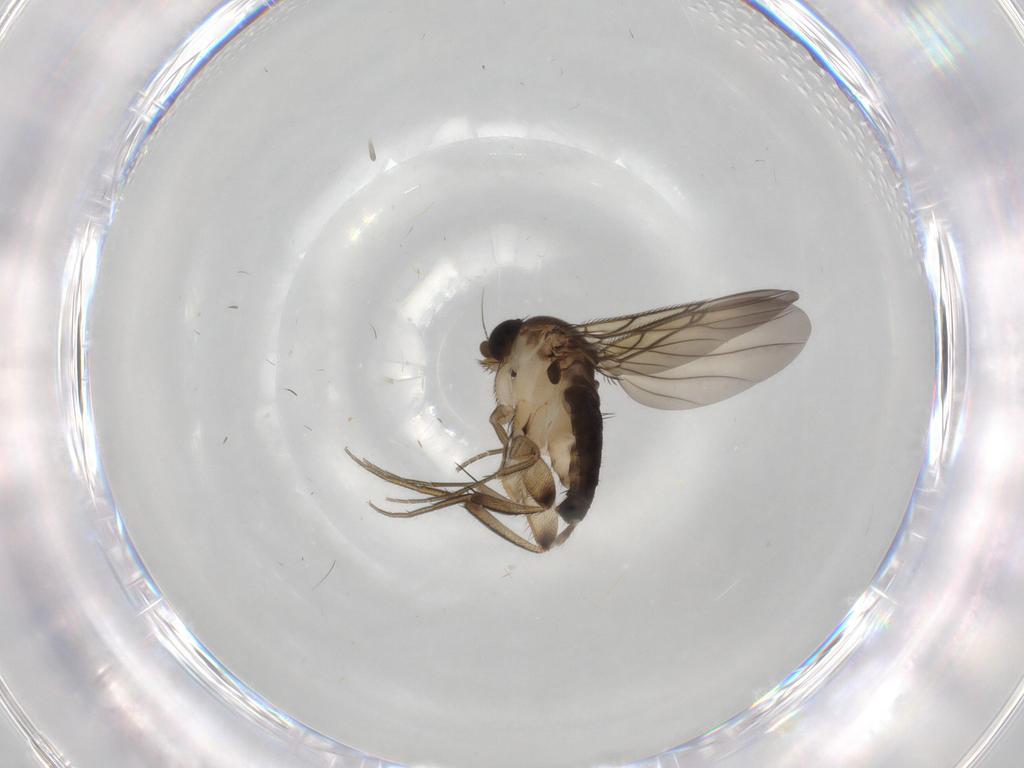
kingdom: Animalia
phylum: Arthropoda
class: Insecta
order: Diptera
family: Cecidomyiidae
